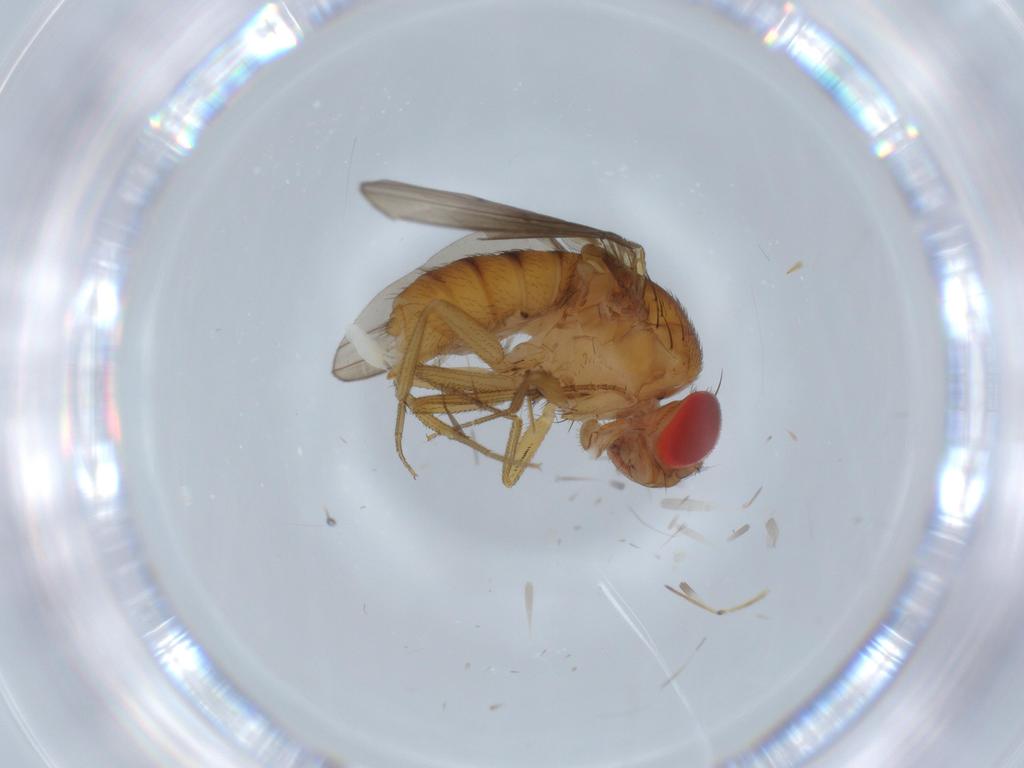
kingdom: Animalia
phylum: Arthropoda
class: Insecta
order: Diptera
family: Drosophilidae
